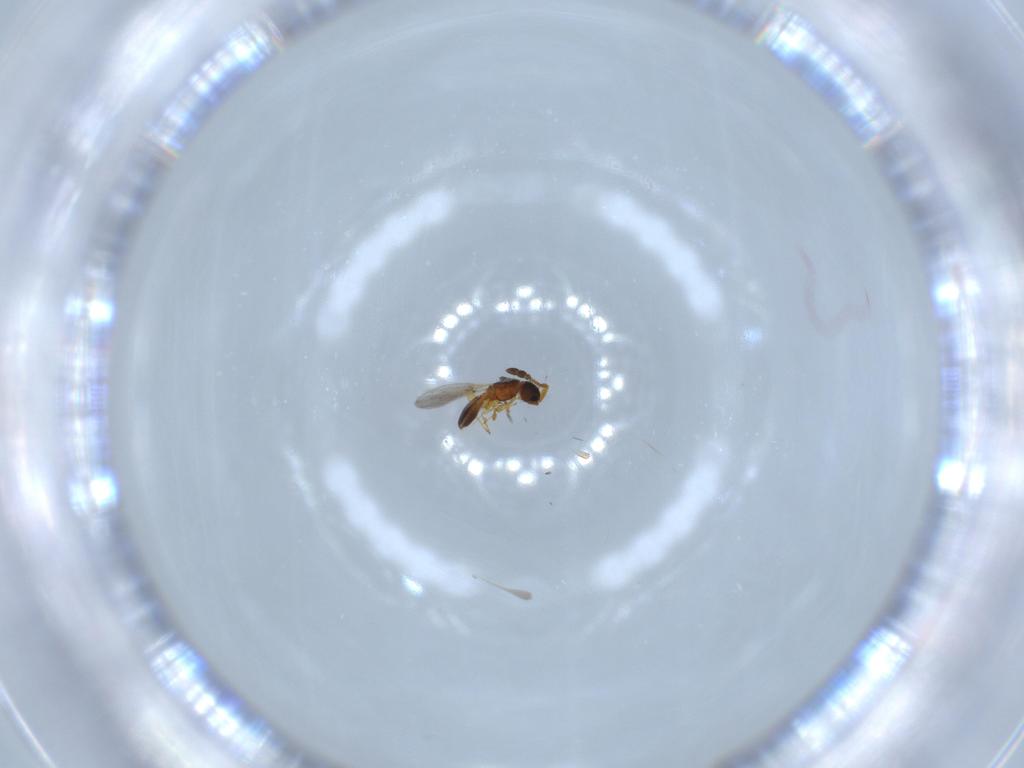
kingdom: Animalia
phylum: Arthropoda
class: Insecta
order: Hymenoptera
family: Diapriidae
